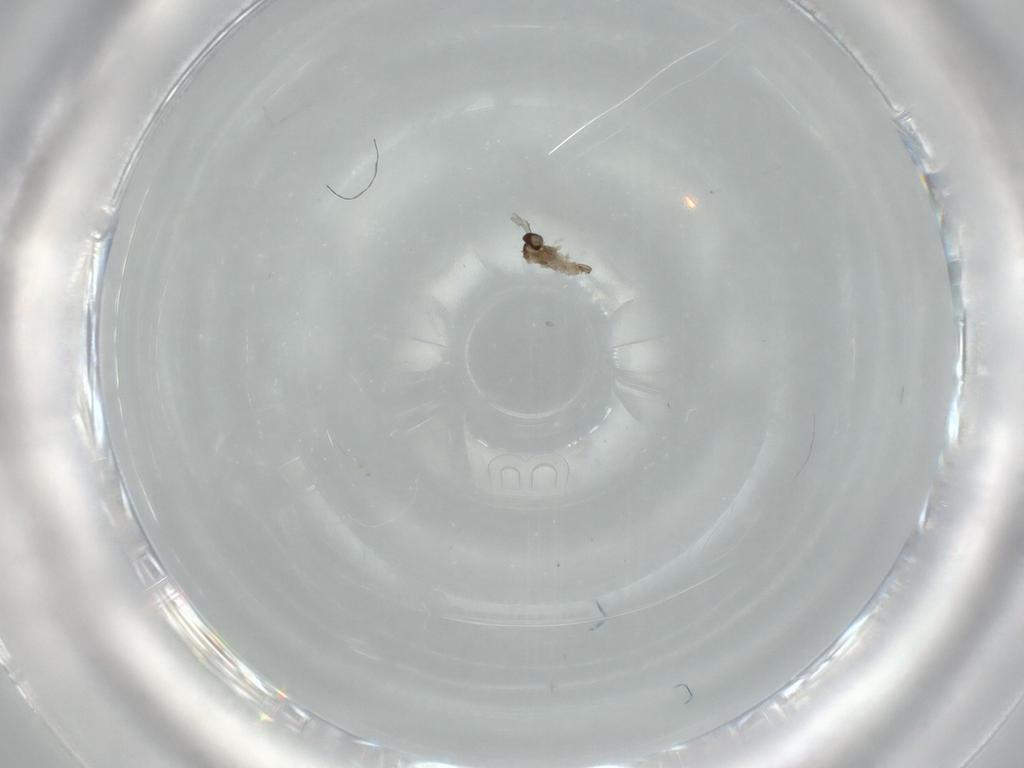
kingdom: Animalia
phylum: Arthropoda
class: Insecta
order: Diptera
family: Cecidomyiidae
